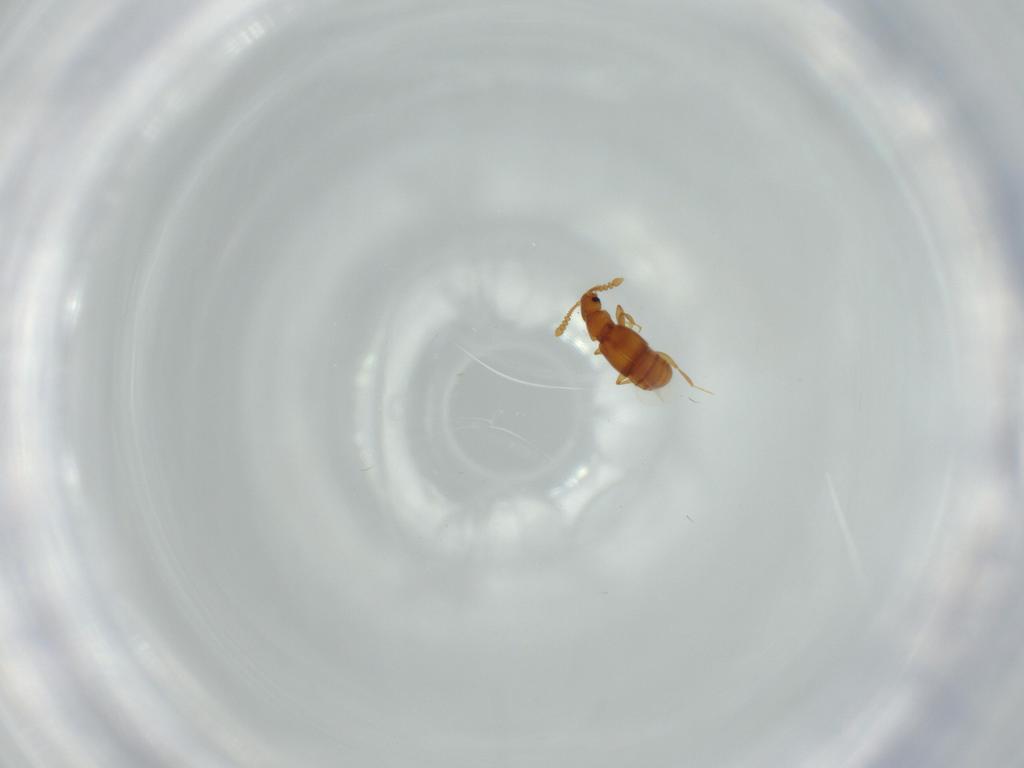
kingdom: Animalia
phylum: Arthropoda
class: Insecta
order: Coleoptera
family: Staphylinidae
